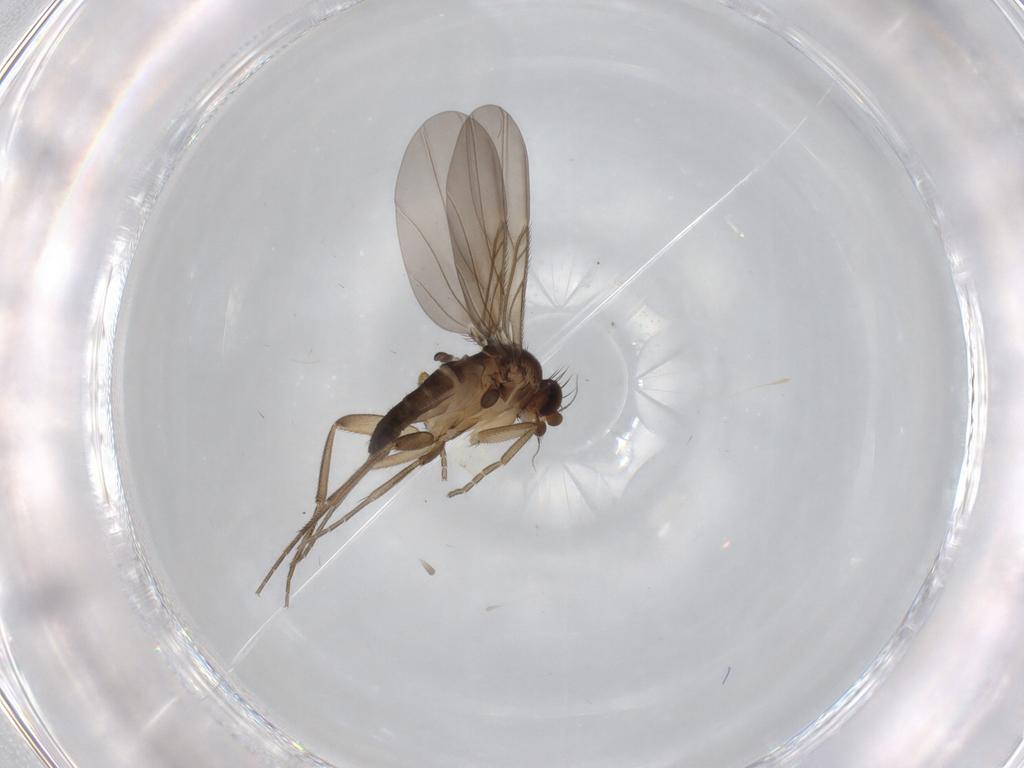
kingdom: Animalia
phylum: Arthropoda
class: Insecta
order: Diptera
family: Phoridae
